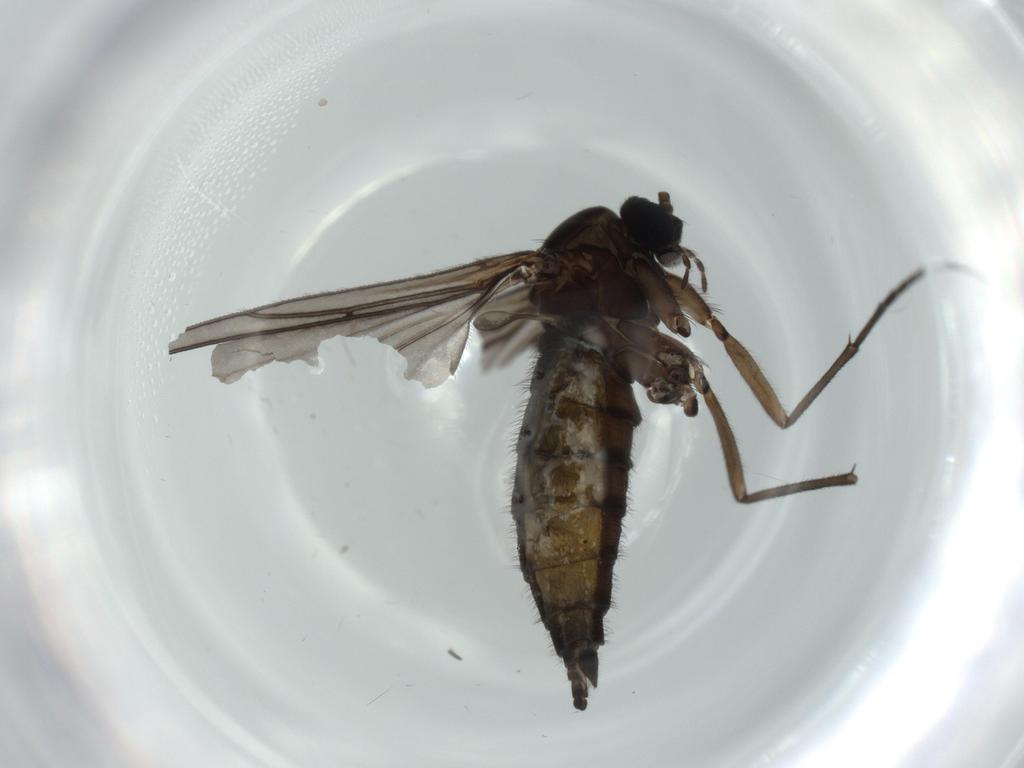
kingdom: Animalia
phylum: Arthropoda
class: Insecta
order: Diptera
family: Sciaridae
